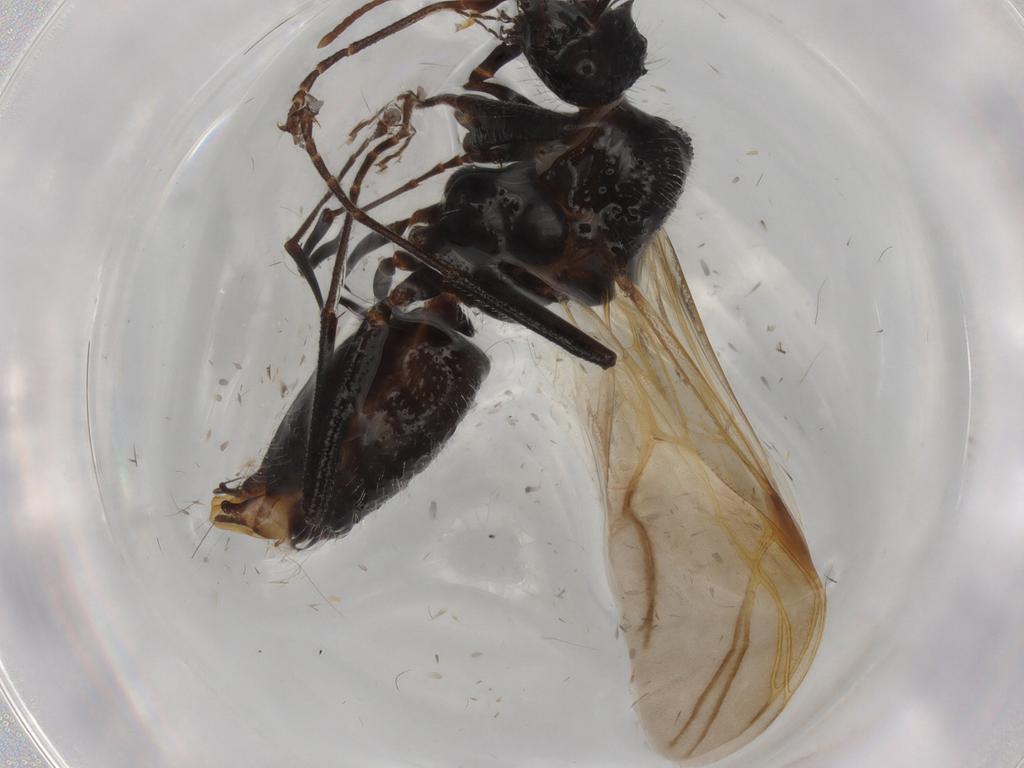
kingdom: Animalia
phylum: Arthropoda
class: Insecta
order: Hymenoptera
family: Formicidae
